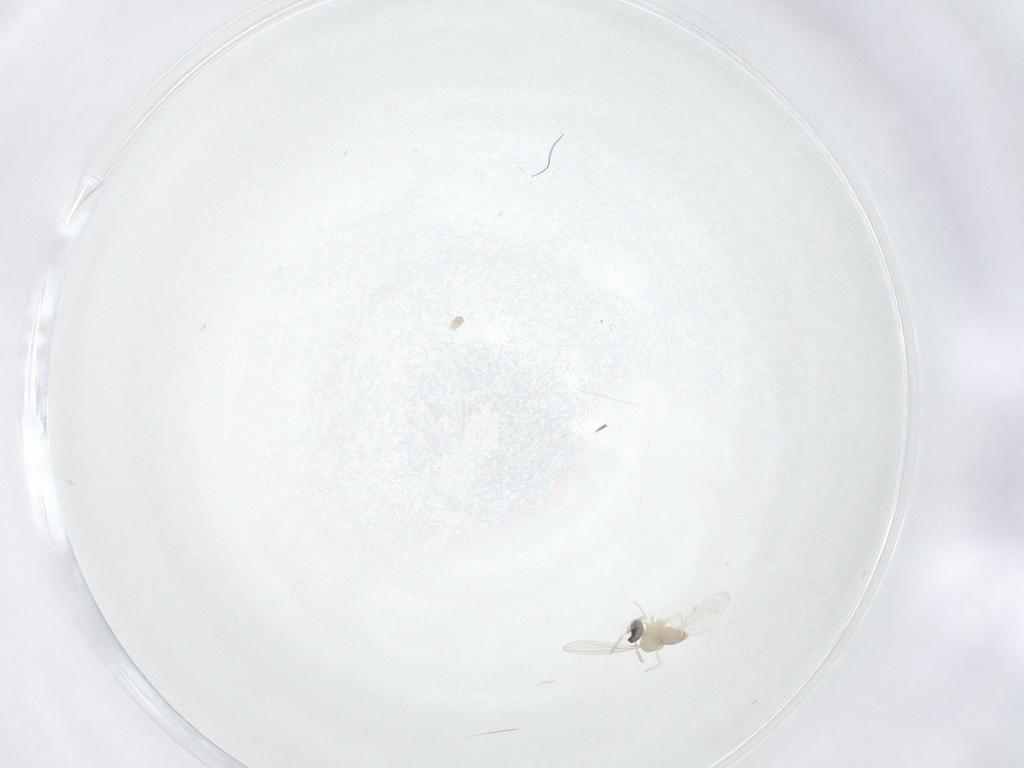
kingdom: Animalia
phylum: Arthropoda
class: Insecta
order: Diptera
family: Cecidomyiidae
